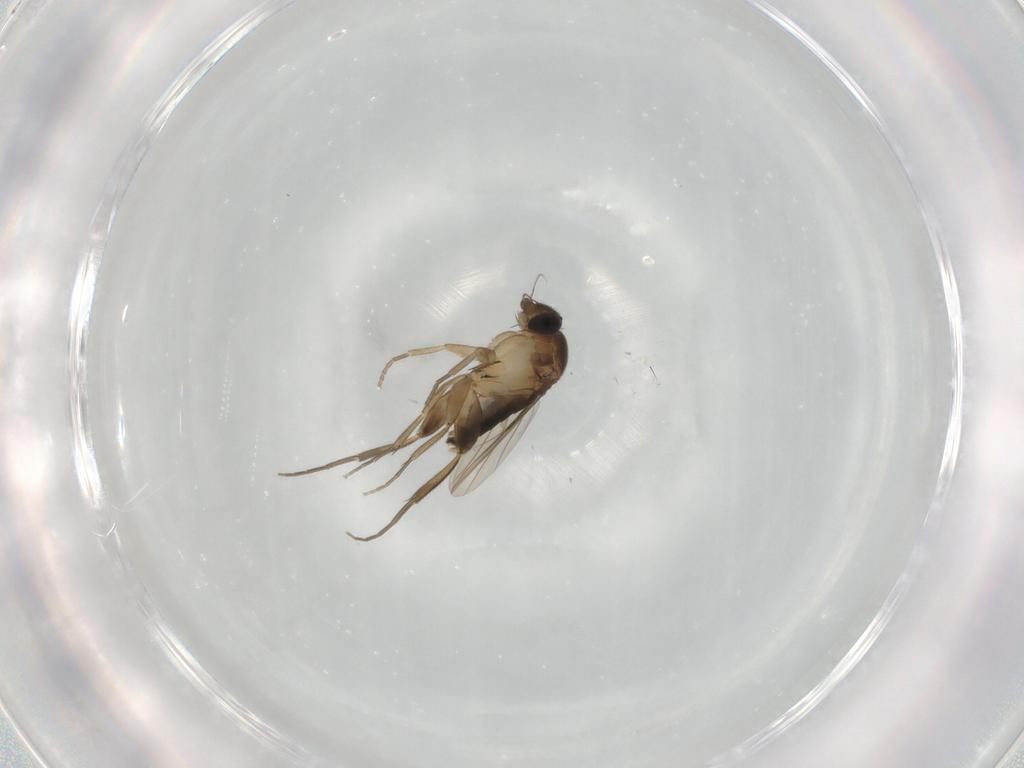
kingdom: Animalia
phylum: Arthropoda
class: Insecta
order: Diptera
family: Phoridae
